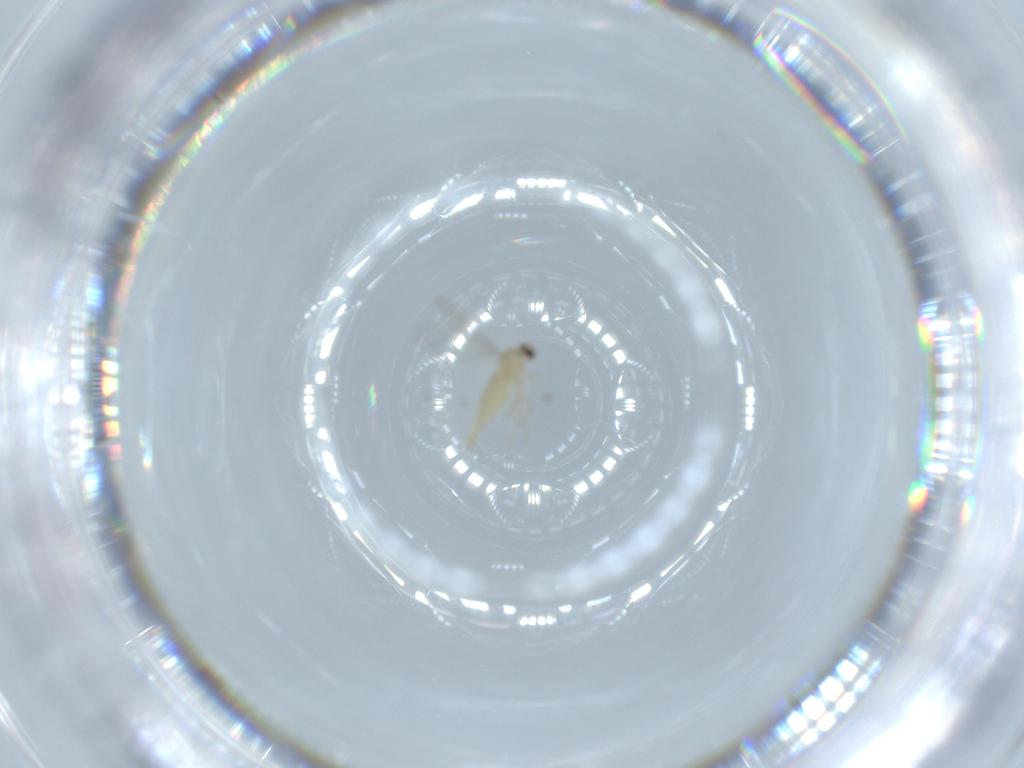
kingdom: Animalia
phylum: Arthropoda
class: Insecta
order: Diptera
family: Cecidomyiidae
